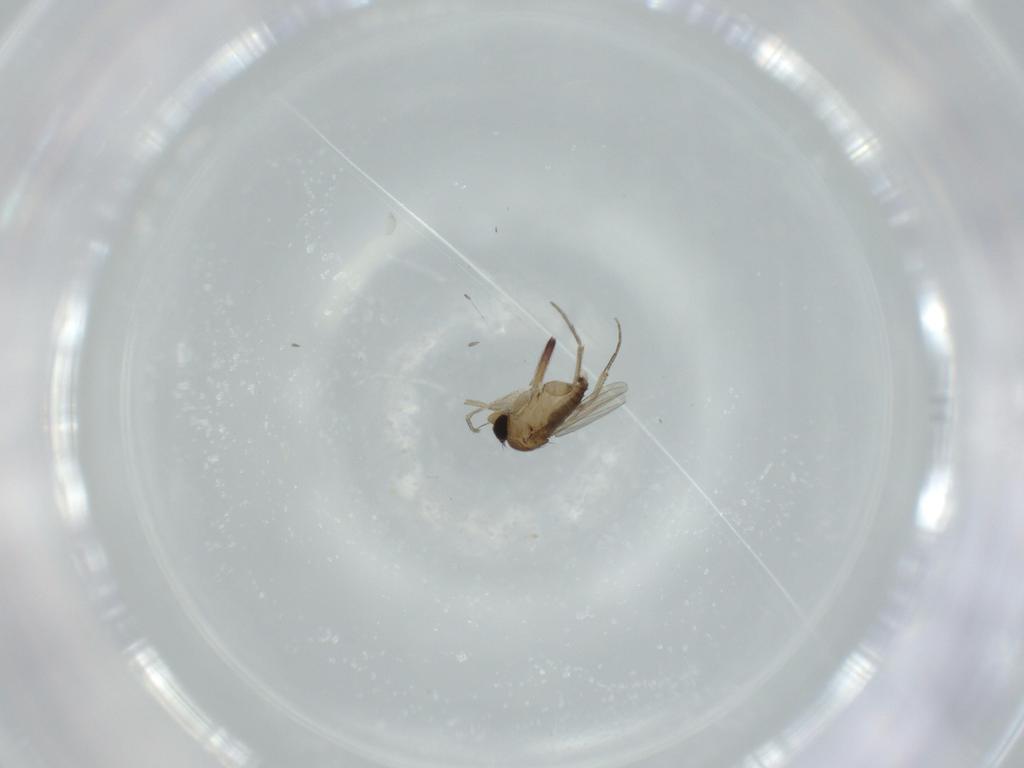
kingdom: Animalia
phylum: Arthropoda
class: Insecta
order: Diptera
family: Phoridae
